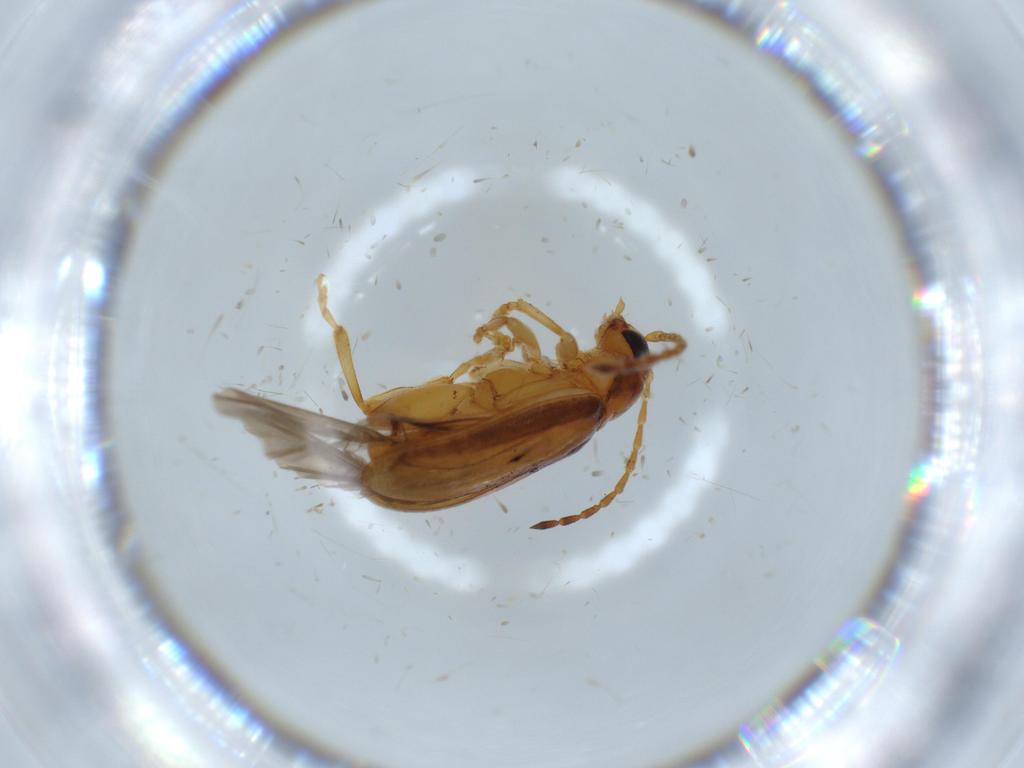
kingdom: Animalia
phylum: Arthropoda
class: Insecta
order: Coleoptera
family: Chrysomelidae
